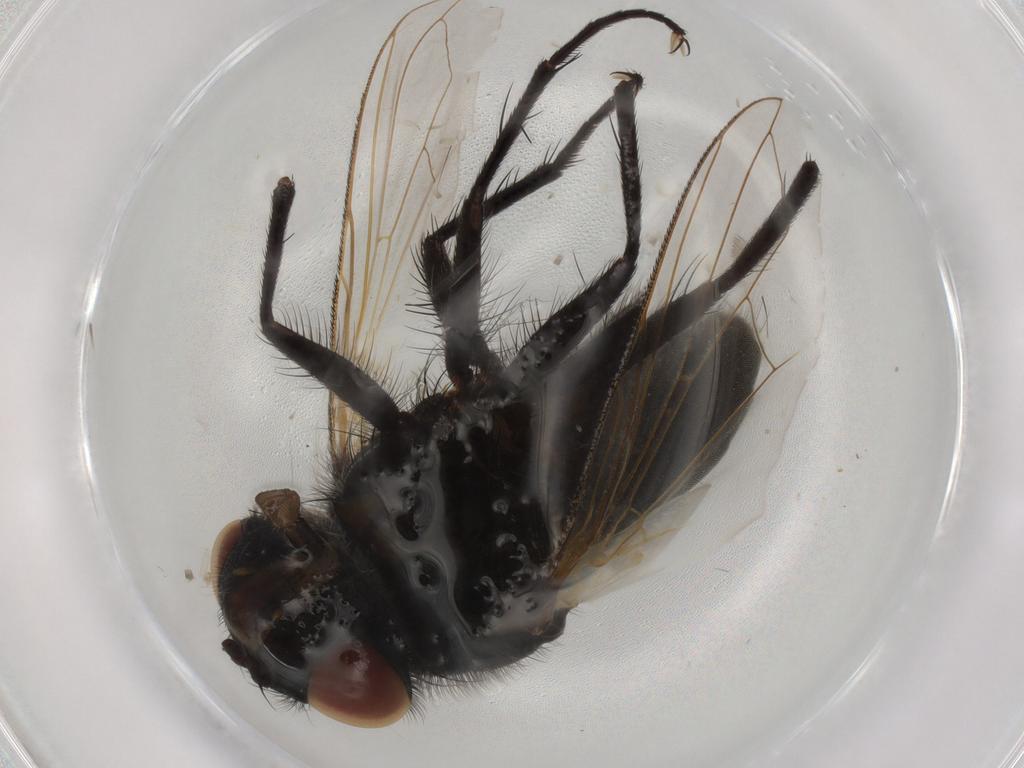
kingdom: Animalia
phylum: Arthropoda
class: Insecta
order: Diptera
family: Tachinidae
